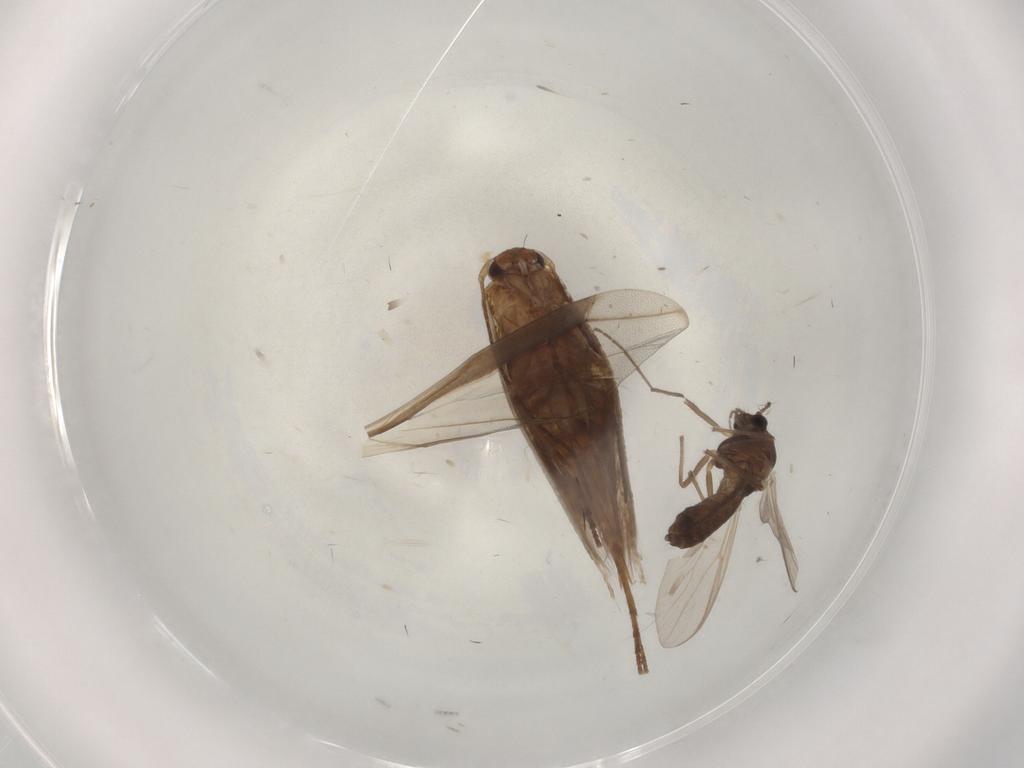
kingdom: Animalia
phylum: Arthropoda
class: Insecta
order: Diptera
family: Chironomidae
